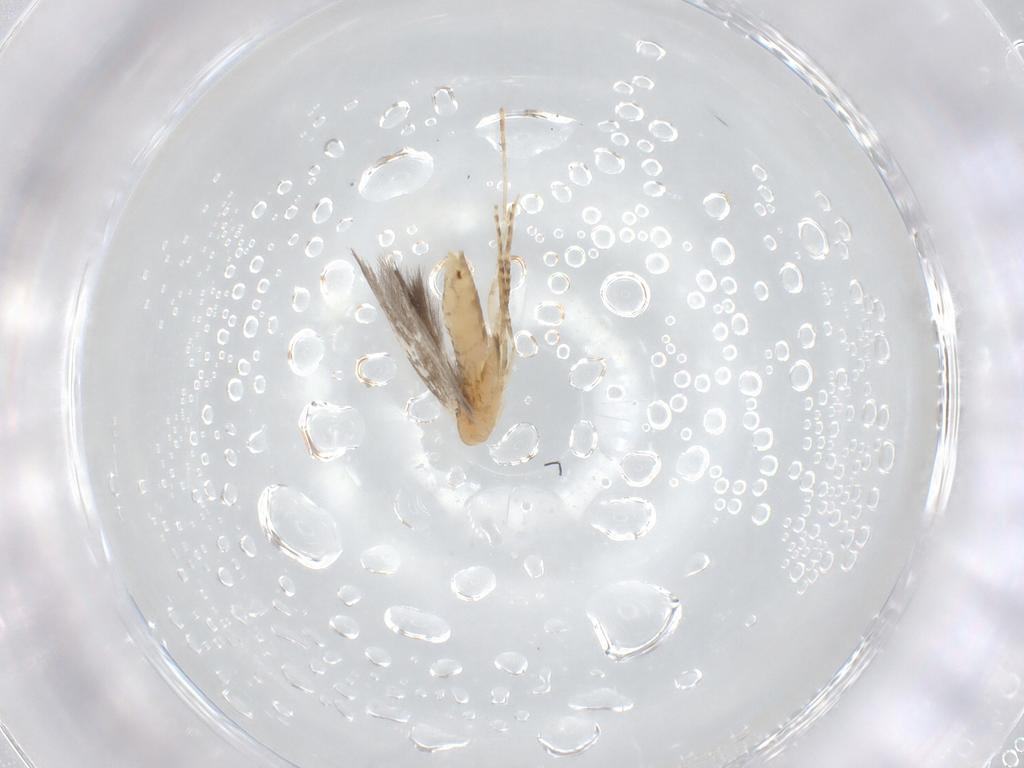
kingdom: Animalia
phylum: Arthropoda
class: Insecta
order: Lepidoptera
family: Gracillariidae
